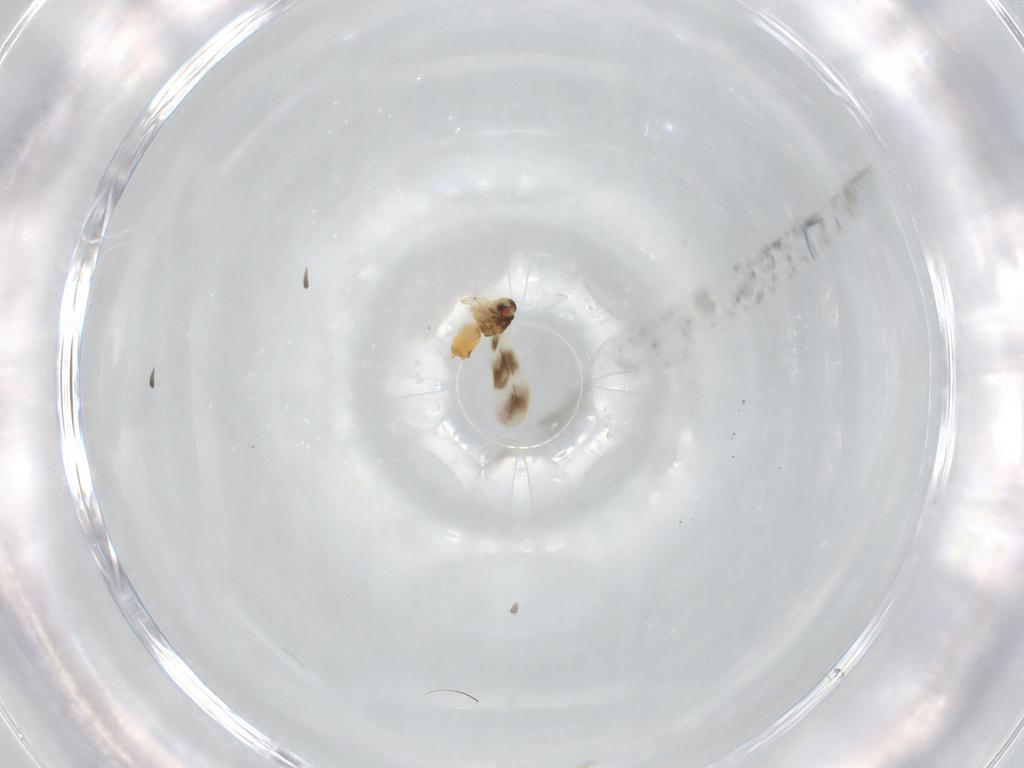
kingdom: Animalia
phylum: Arthropoda
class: Insecta
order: Hemiptera
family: Aleyrodidae
